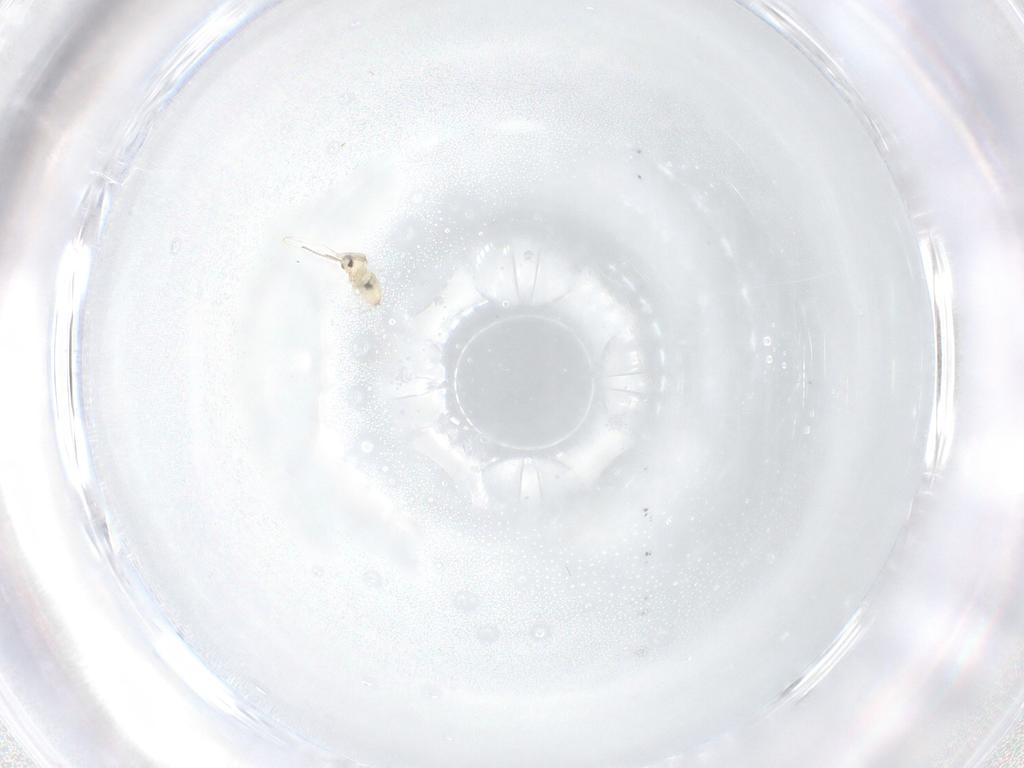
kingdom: Animalia
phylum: Arthropoda
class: Insecta
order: Diptera
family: Cecidomyiidae
